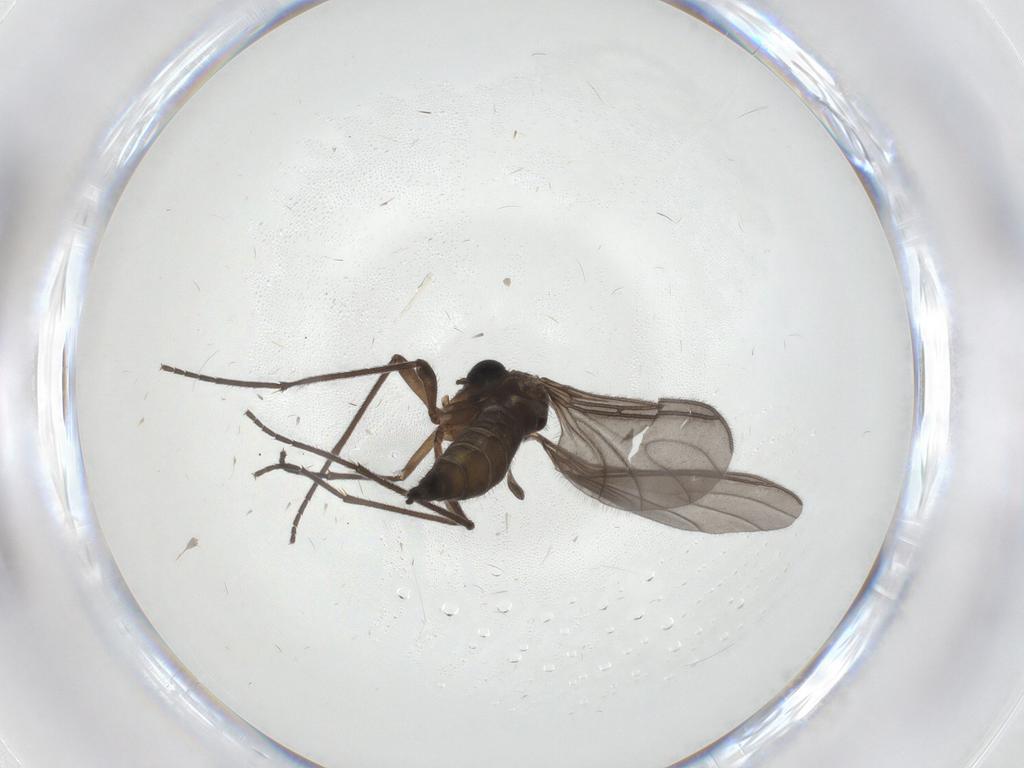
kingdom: Animalia
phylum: Arthropoda
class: Insecta
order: Diptera
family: Sciaridae
